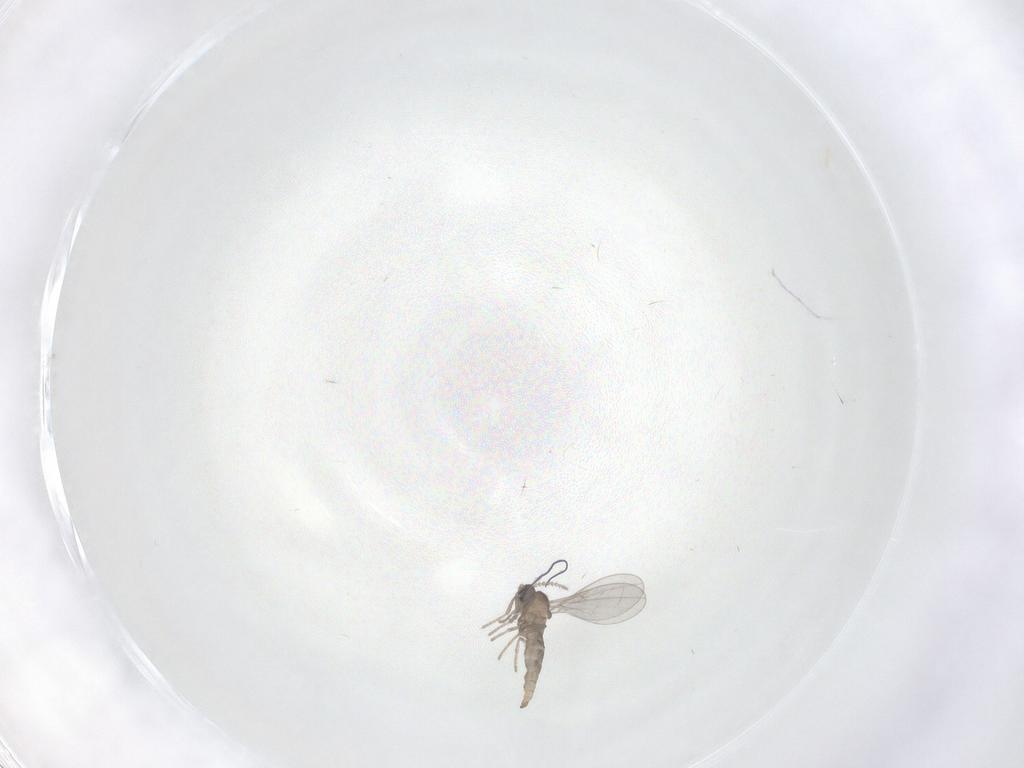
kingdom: Animalia
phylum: Arthropoda
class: Insecta
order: Diptera
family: Cecidomyiidae
